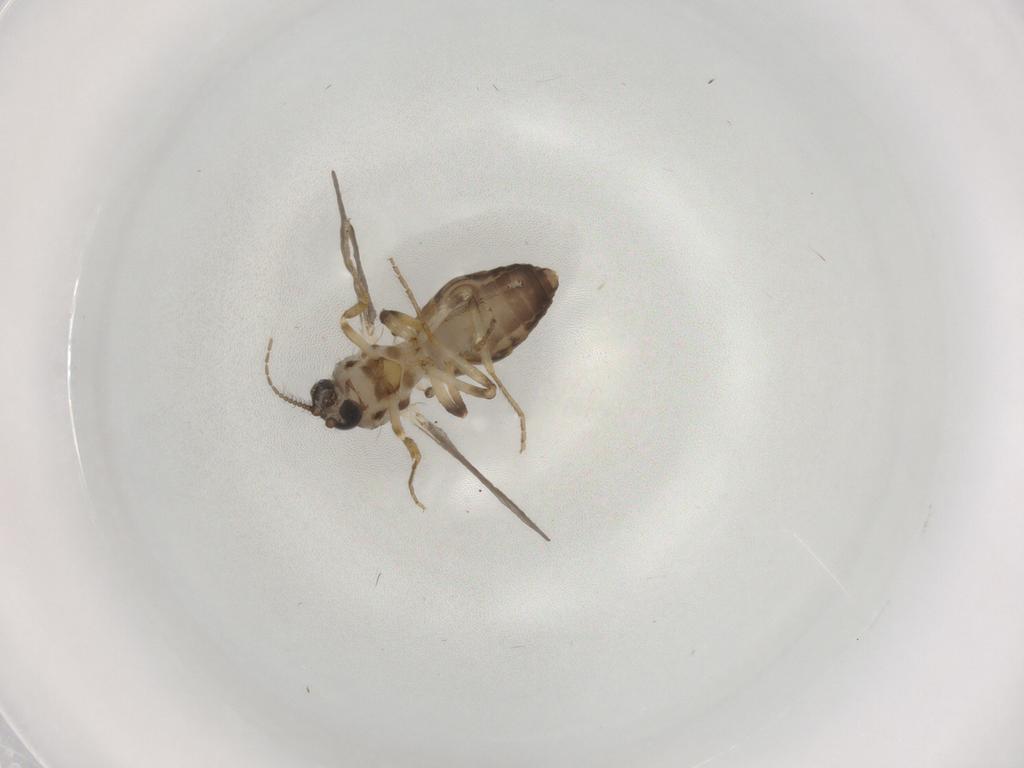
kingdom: Animalia
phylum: Arthropoda
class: Insecta
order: Diptera
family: Ceratopogonidae
